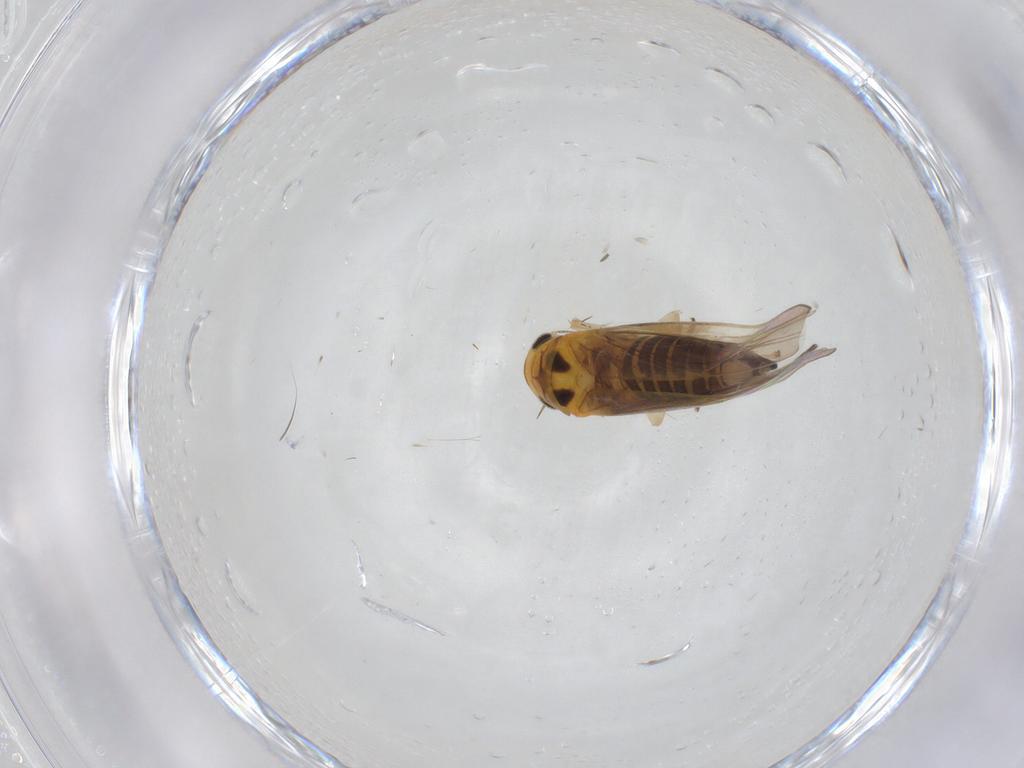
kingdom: Animalia
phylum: Arthropoda
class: Insecta
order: Hemiptera
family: Cicadellidae
